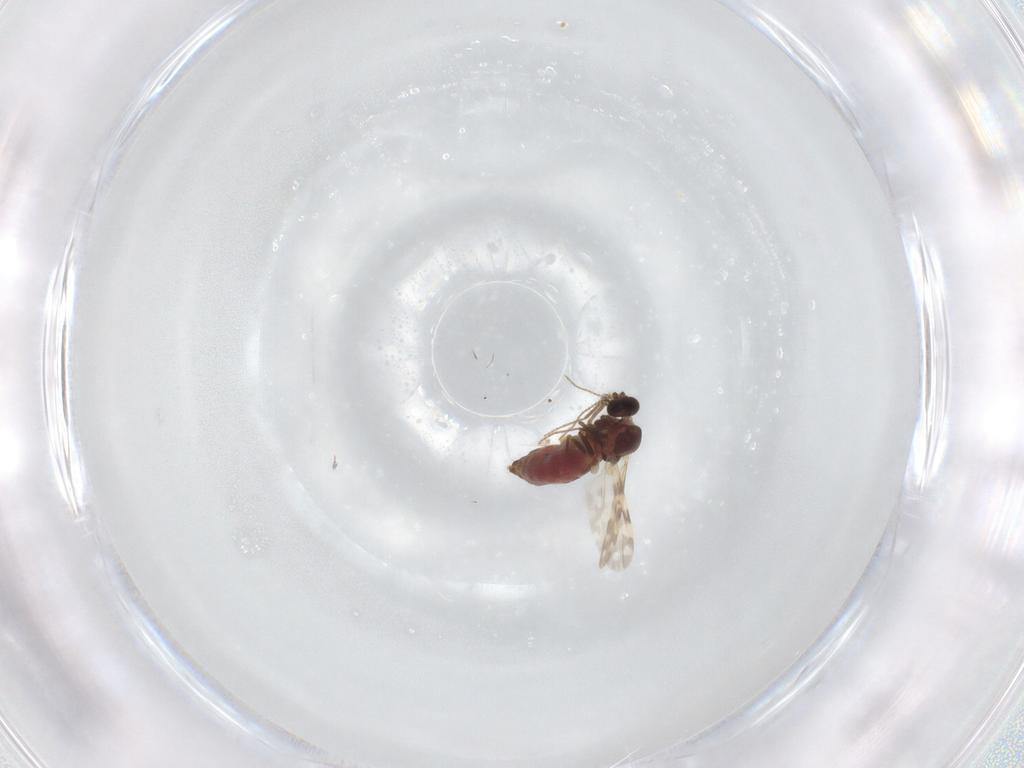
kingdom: Animalia
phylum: Arthropoda
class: Insecta
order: Diptera
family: Ceratopogonidae
